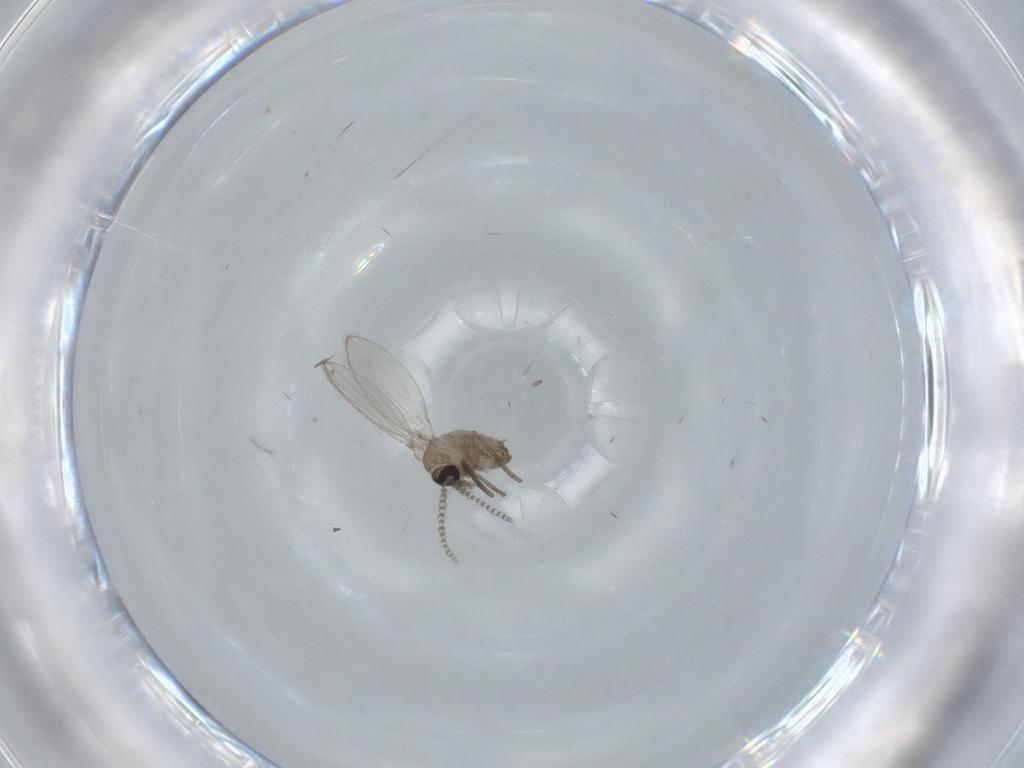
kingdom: Animalia
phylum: Arthropoda
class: Insecta
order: Diptera
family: Psychodidae
